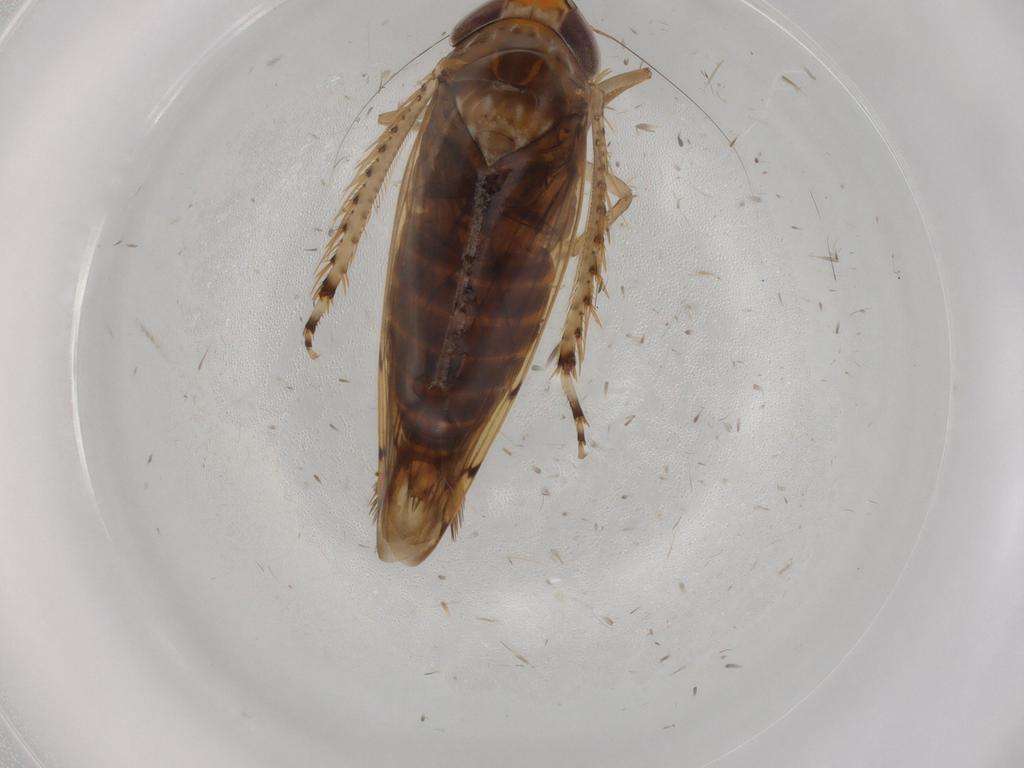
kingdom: Animalia
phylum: Arthropoda
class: Insecta
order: Hemiptera
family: Cicadellidae
